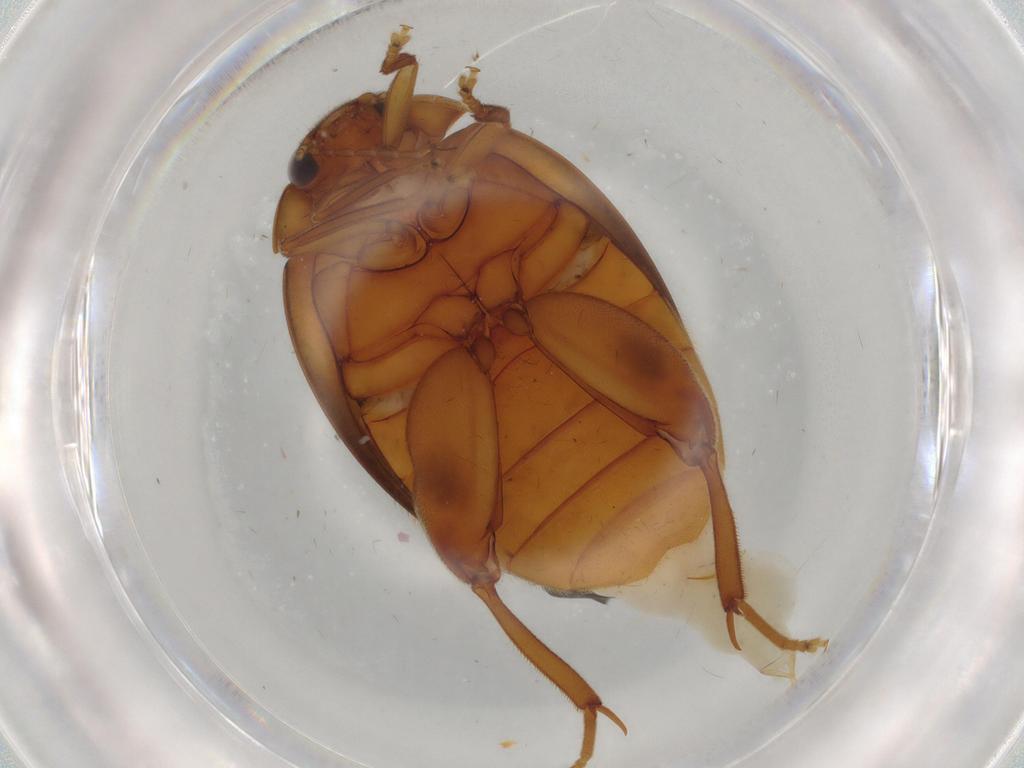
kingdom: Animalia
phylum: Arthropoda
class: Insecta
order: Coleoptera
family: Scirtidae
